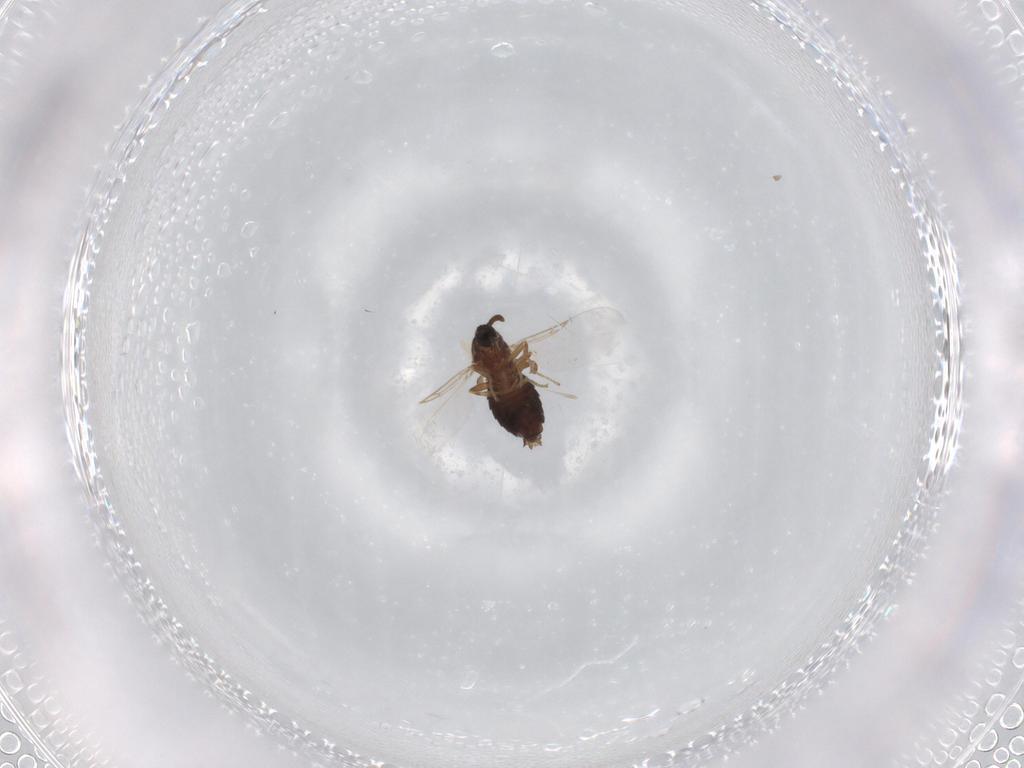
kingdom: Animalia
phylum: Arthropoda
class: Insecta
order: Diptera
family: Scatopsidae
